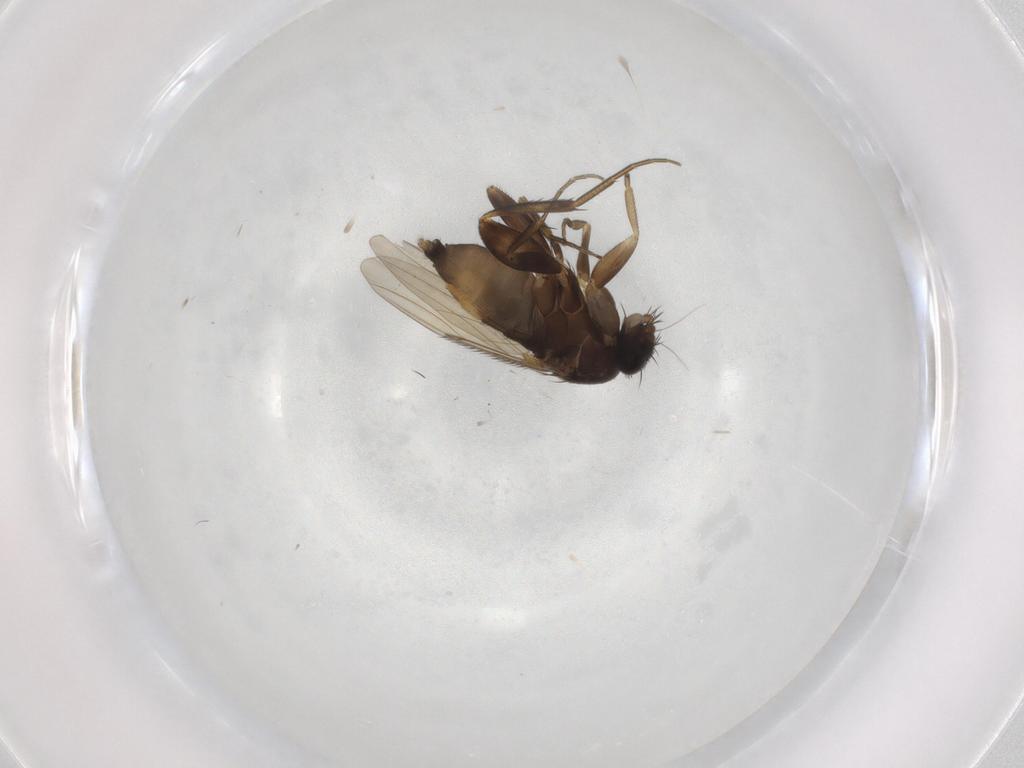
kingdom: Animalia
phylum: Arthropoda
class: Insecta
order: Diptera
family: Phoridae
